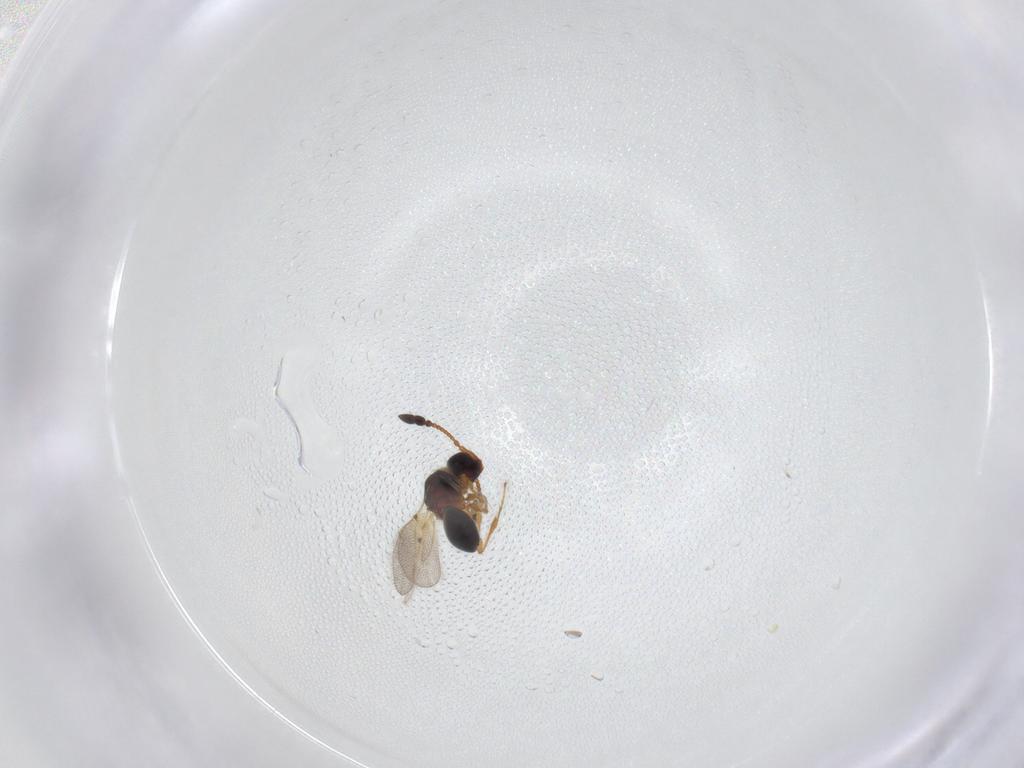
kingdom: Animalia
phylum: Arthropoda
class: Insecta
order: Hymenoptera
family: Diapriidae
